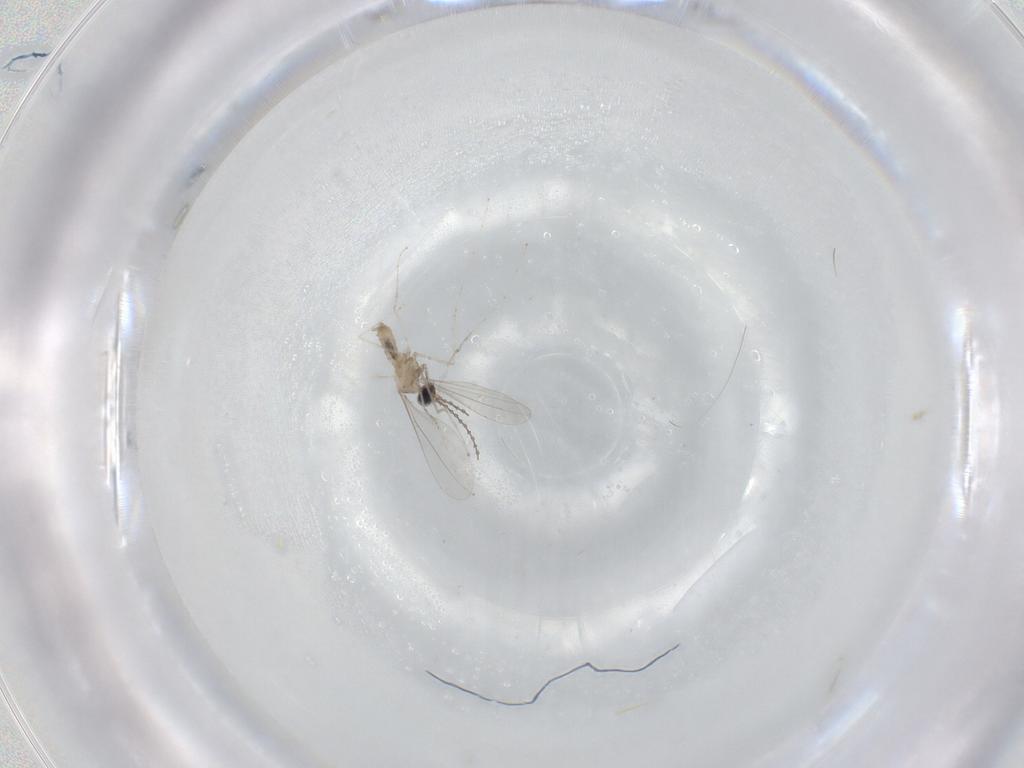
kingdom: Animalia
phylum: Arthropoda
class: Insecta
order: Diptera
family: Cecidomyiidae
